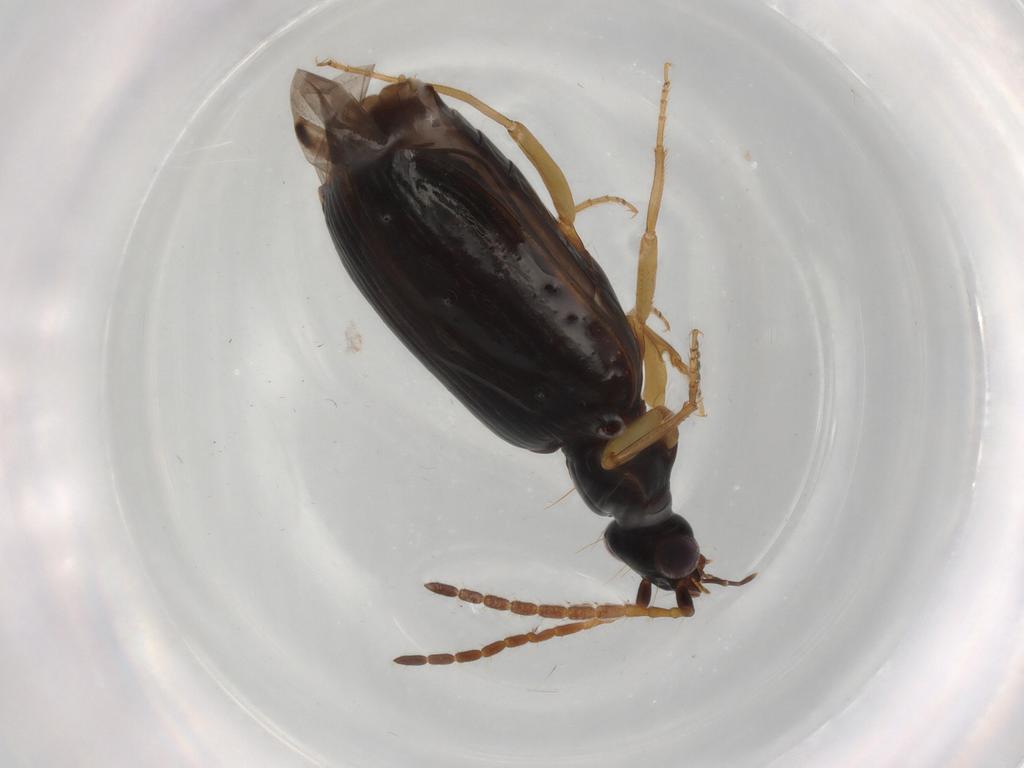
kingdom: Animalia
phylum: Arthropoda
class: Insecta
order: Coleoptera
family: Carabidae
